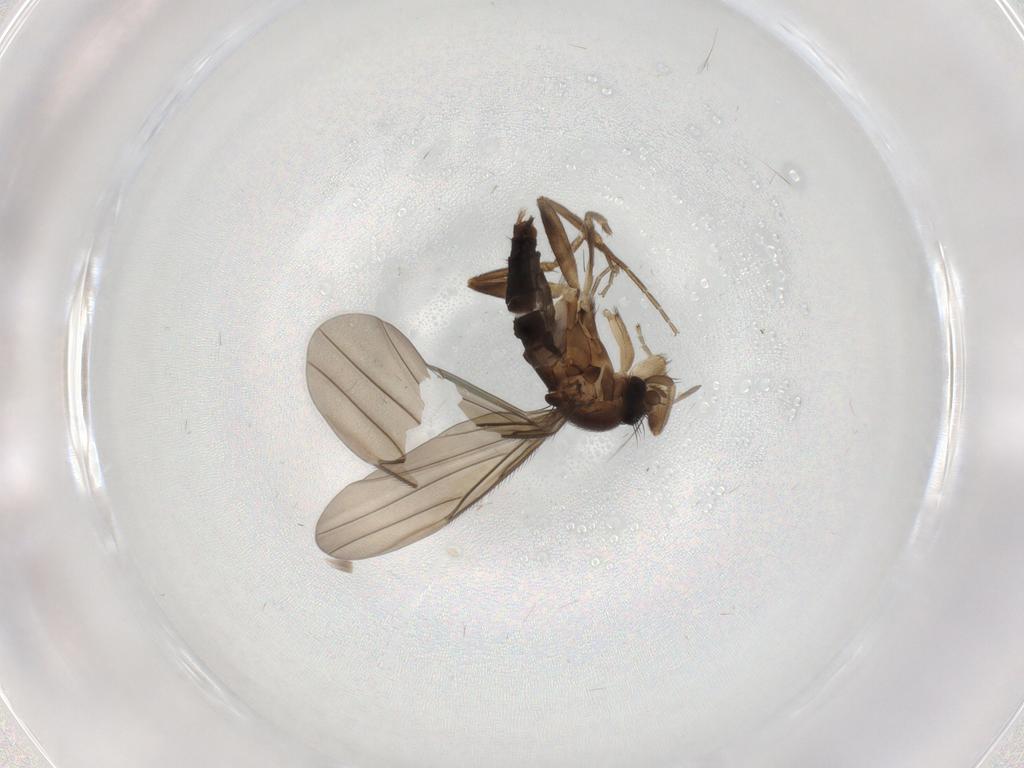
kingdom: Animalia
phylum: Arthropoda
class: Insecta
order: Diptera
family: Phoridae
